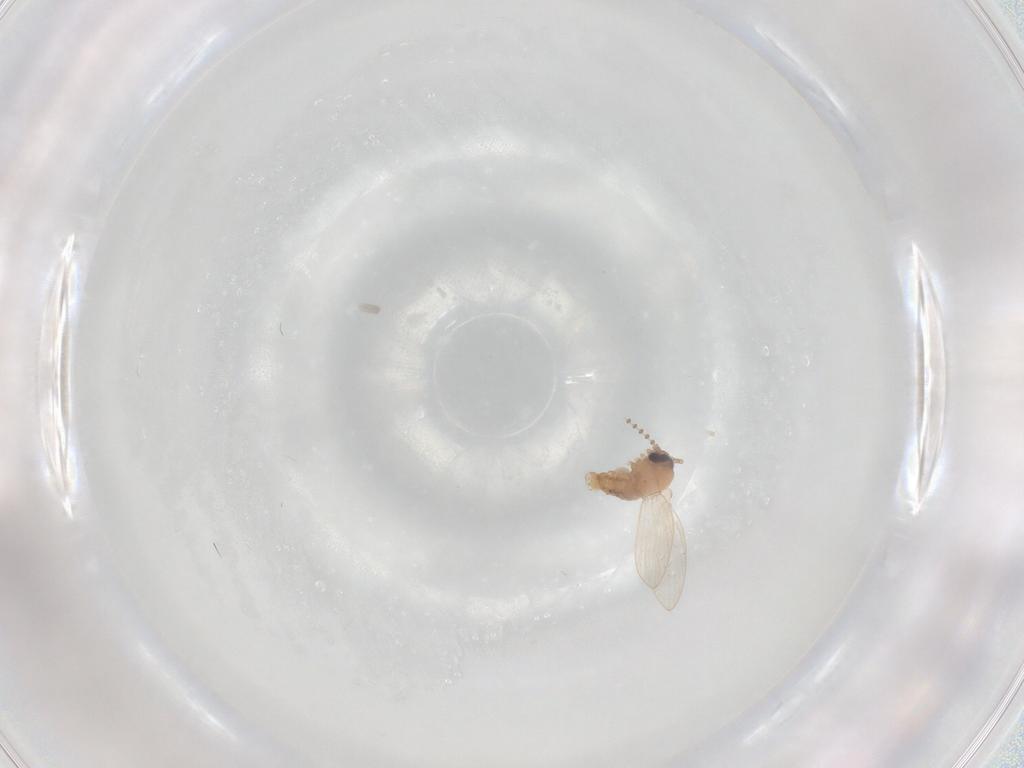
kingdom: Animalia
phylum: Arthropoda
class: Insecta
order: Diptera
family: Psychodidae
